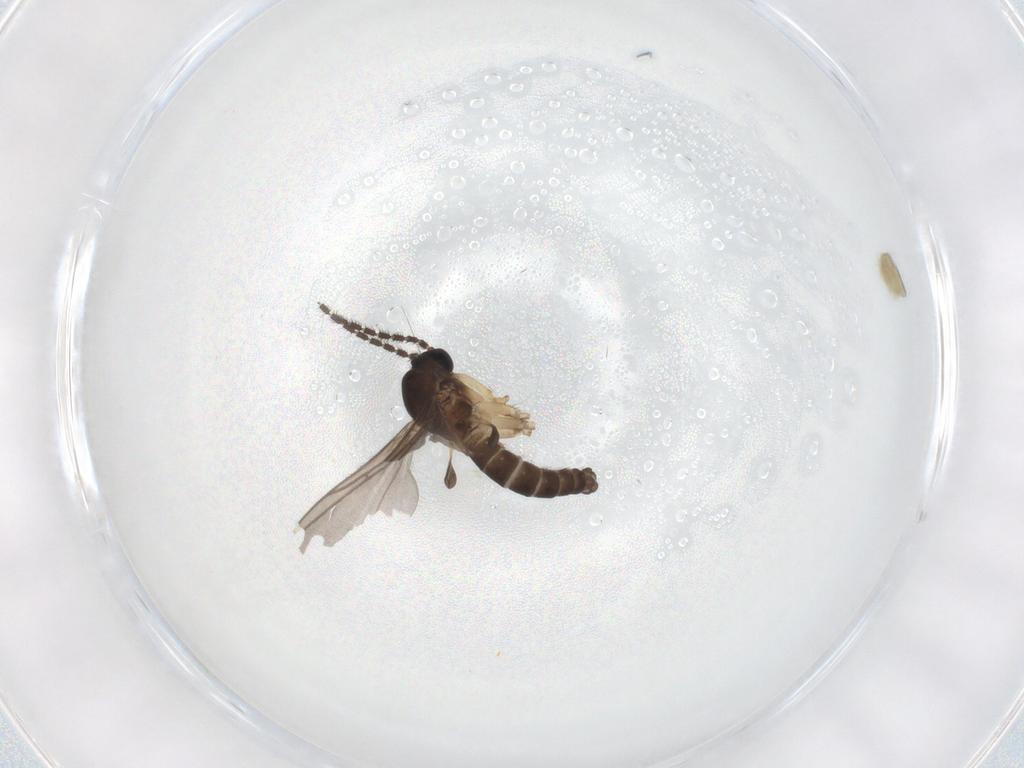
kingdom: Animalia
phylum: Arthropoda
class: Insecta
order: Diptera
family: Sciaridae
